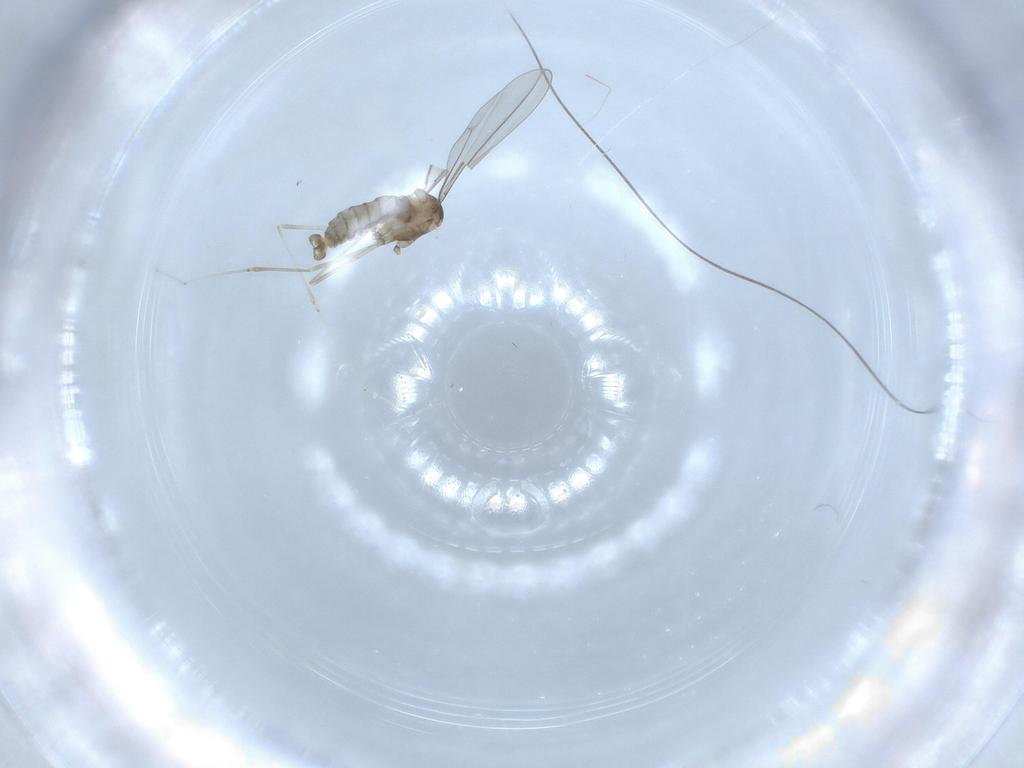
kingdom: Animalia
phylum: Arthropoda
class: Insecta
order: Diptera
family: Cecidomyiidae
